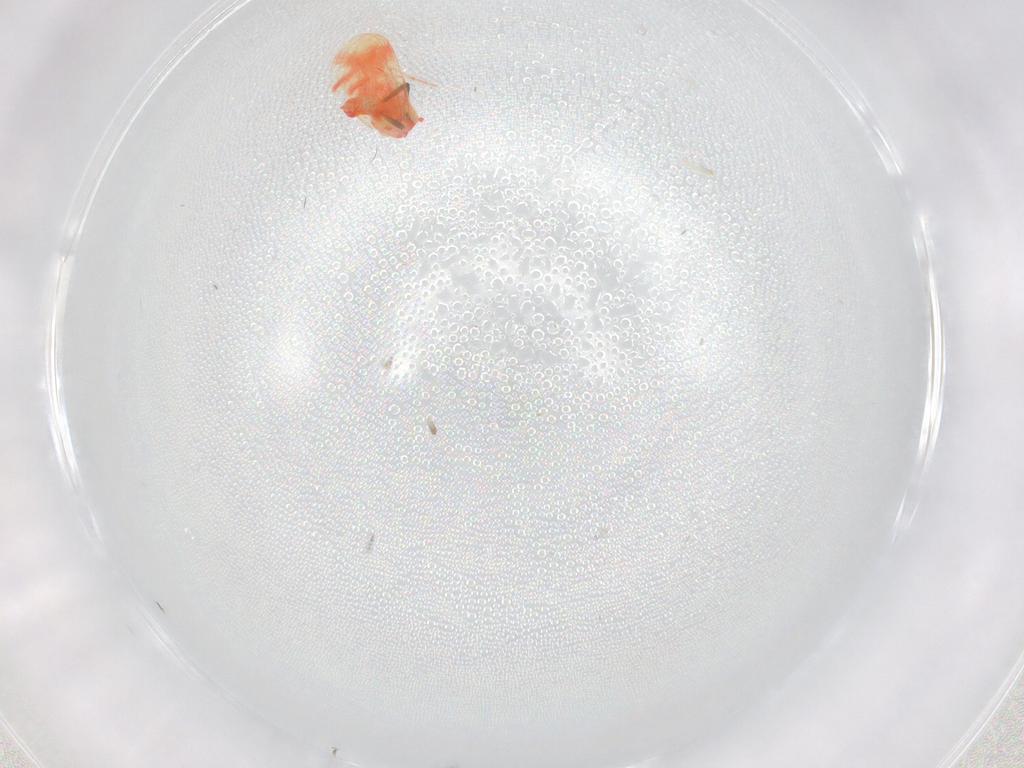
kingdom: Animalia
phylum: Arthropoda
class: Insecta
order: Hemiptera
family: Aleyrodidae
